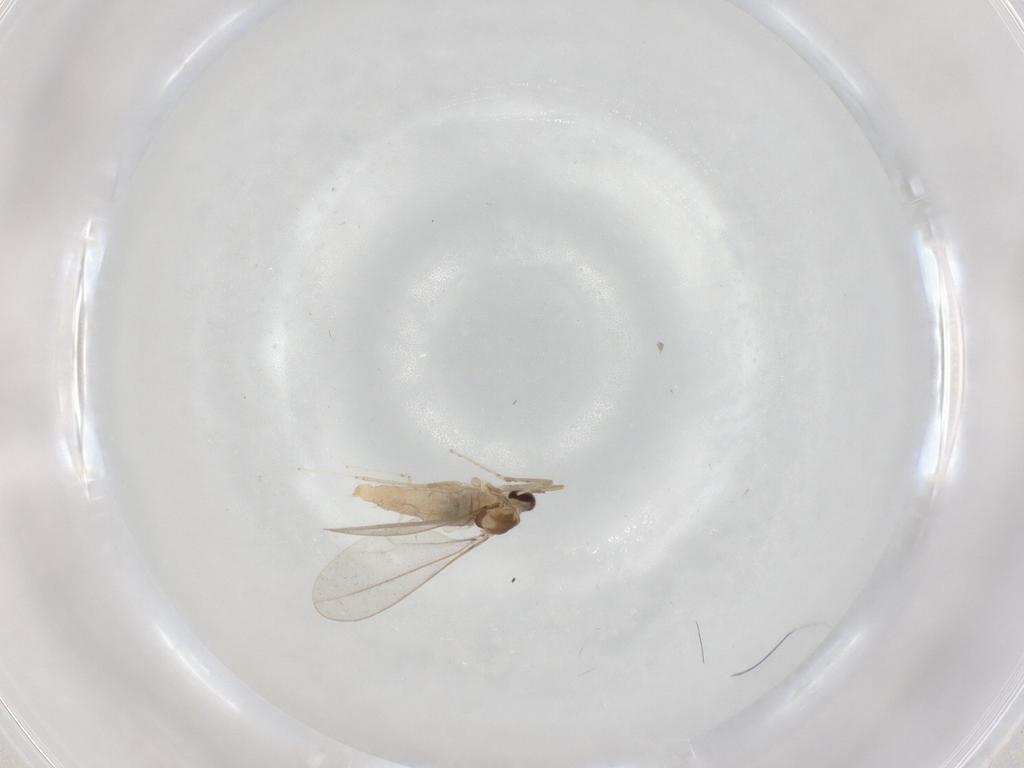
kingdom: Animalia
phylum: Arthropoda
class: Insecta
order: Diptera
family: Cecidomyiidae
